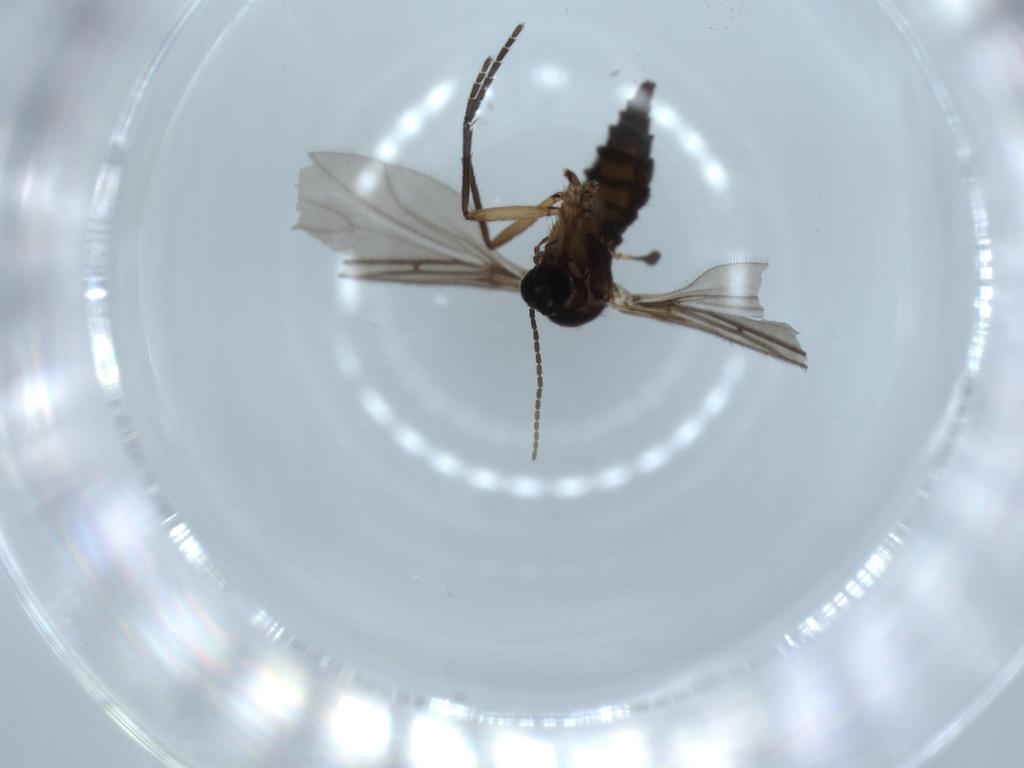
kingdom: Animalia
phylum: Arthropoda
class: Insecta
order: Diptera
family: Sciaridae
